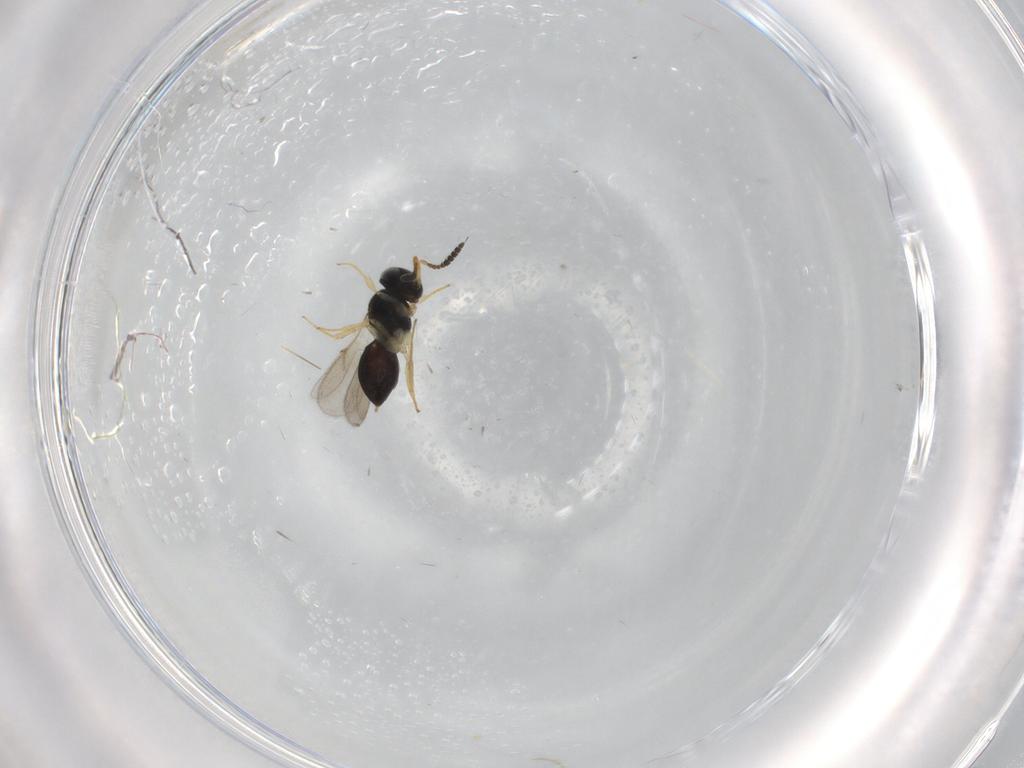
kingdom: Animalia
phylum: Arthropoda
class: Insecta
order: Hymenoptera
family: Scelionidae
